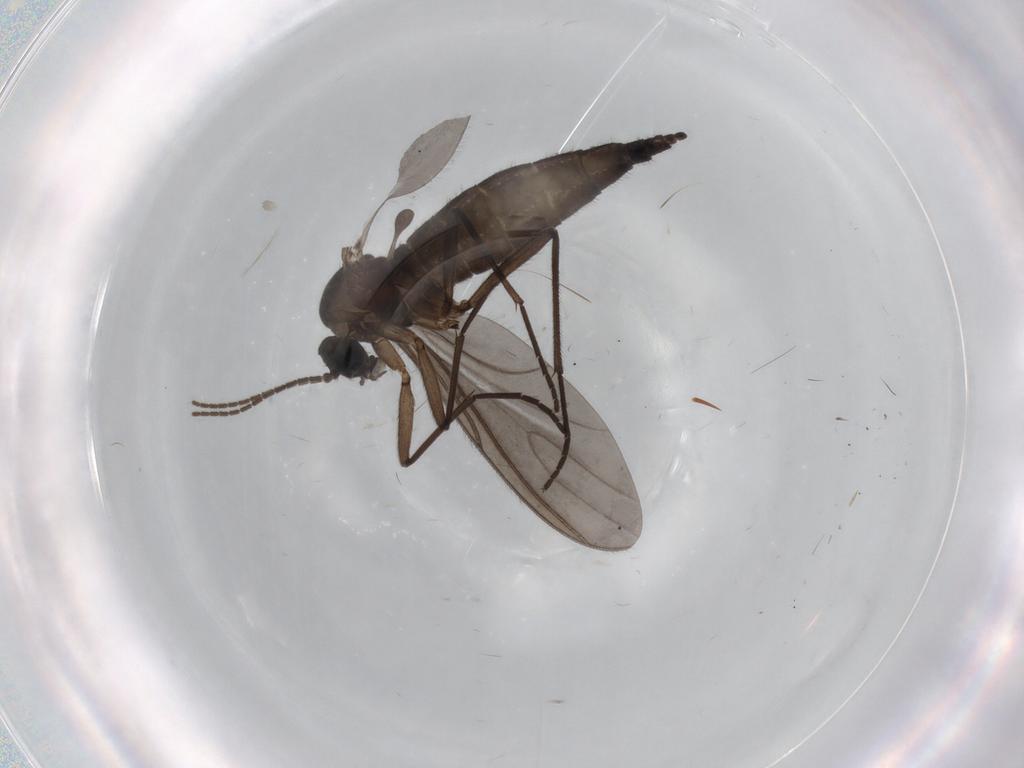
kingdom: Animalia
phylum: Arthropoda
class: Insecta
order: Diptera
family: Sciaridae
